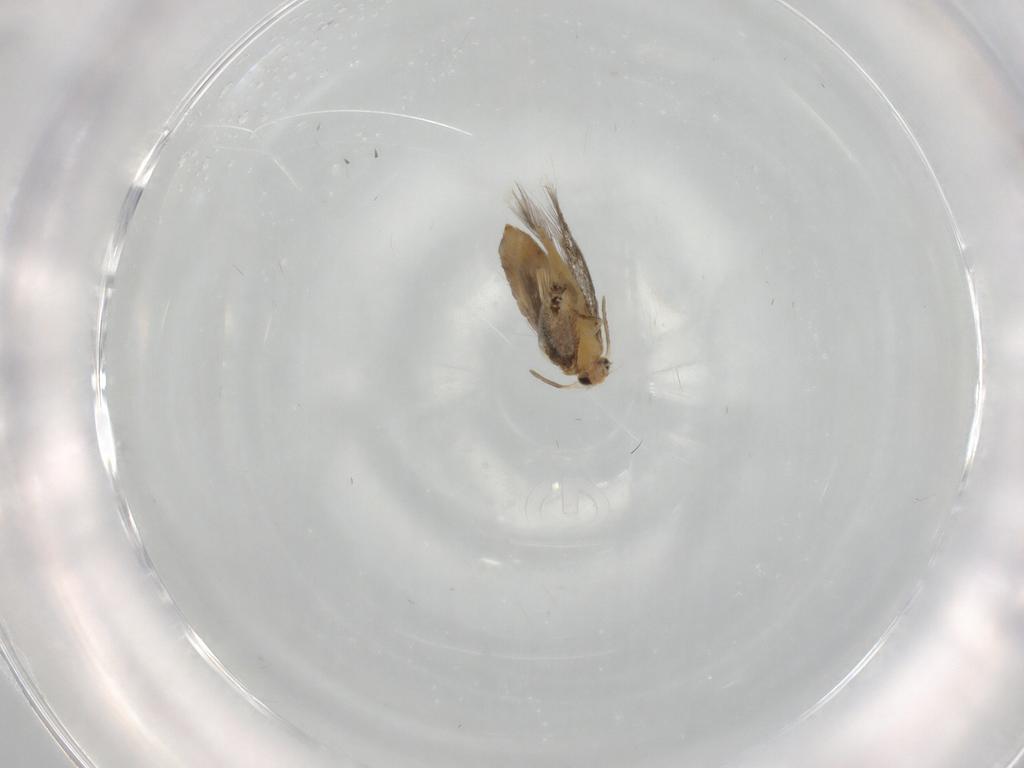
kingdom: Animalia
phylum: Arthropoda
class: Insecta
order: Lepidoptera
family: Nepticulidae
